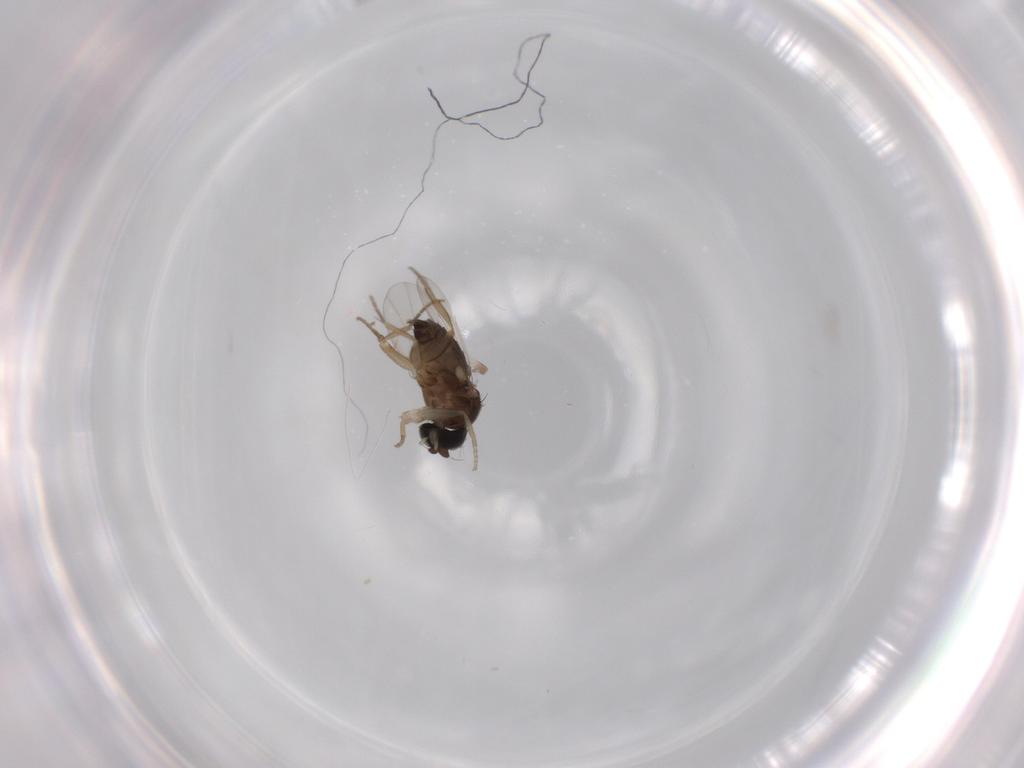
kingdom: Animalia
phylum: Arthropoda
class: Insecta
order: Diptera
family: Phoridae
